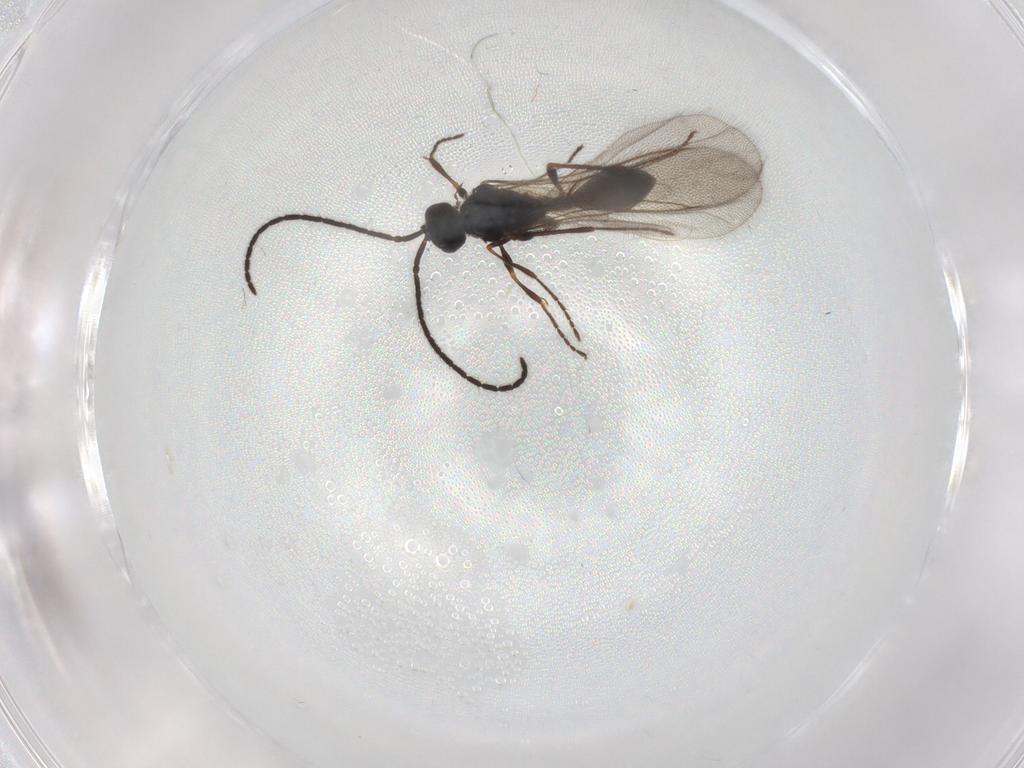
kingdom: Animalia
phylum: Arthropoda
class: Insecta
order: Hymenoptera
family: Diapriidae
